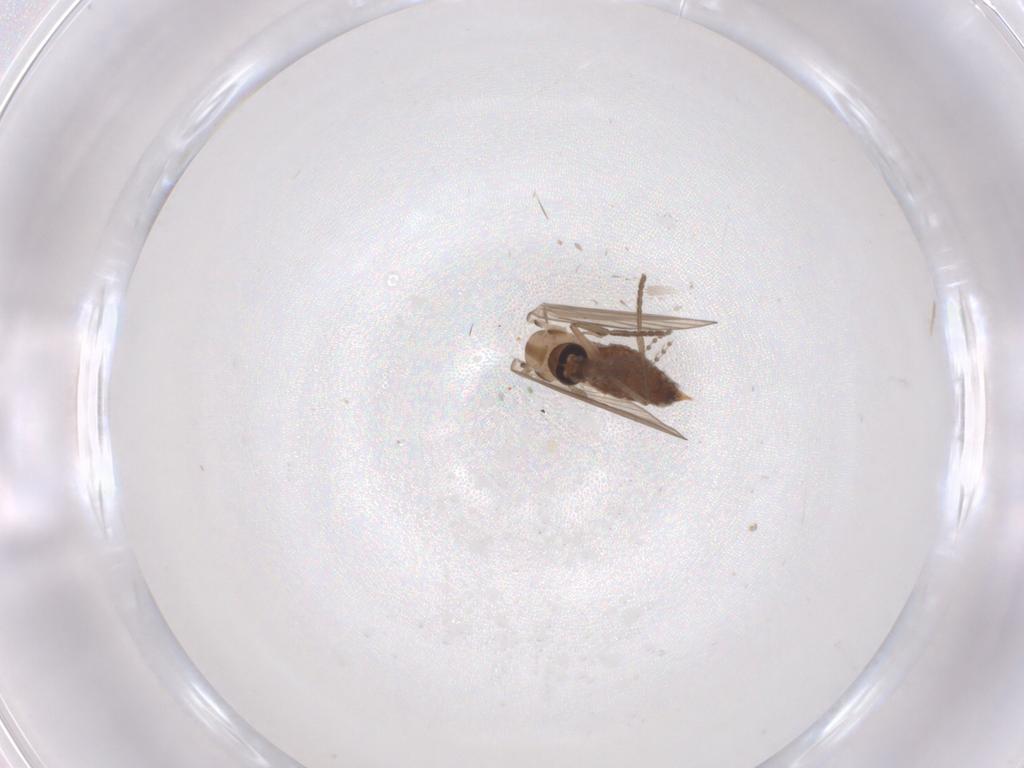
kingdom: Animalia
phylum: Arthropoda
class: Insecta
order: Diptera
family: Psychodidae
